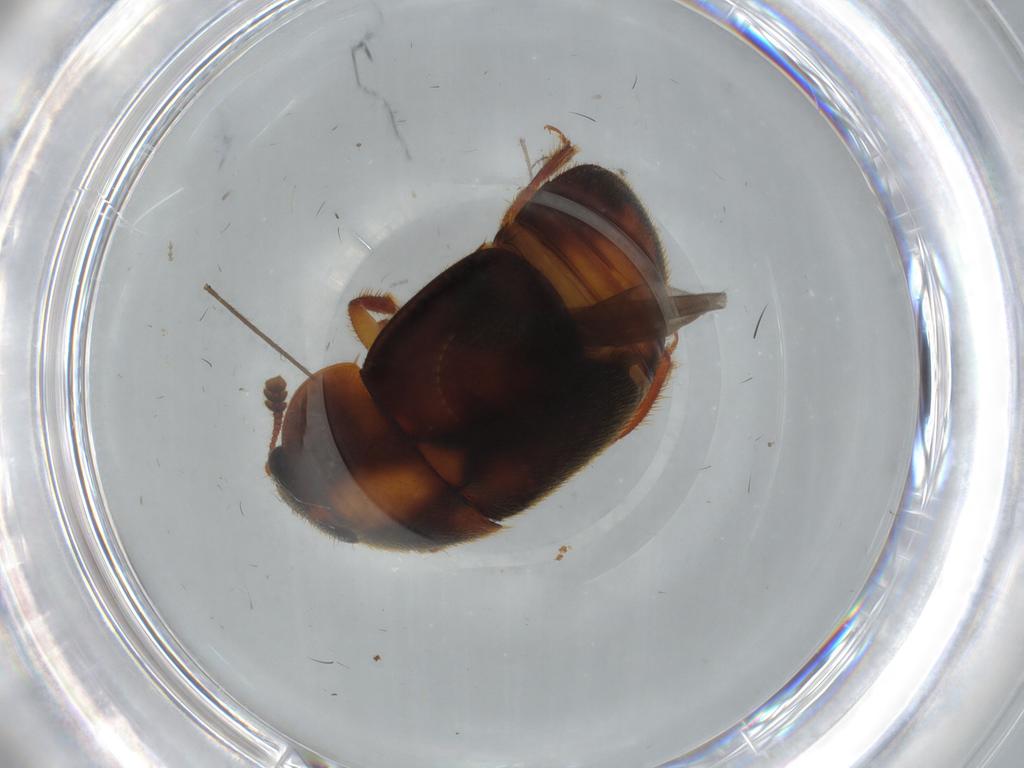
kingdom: Animalia
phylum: Arthropoda
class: Insecta
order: Coleoptera
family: Nitidulidae
